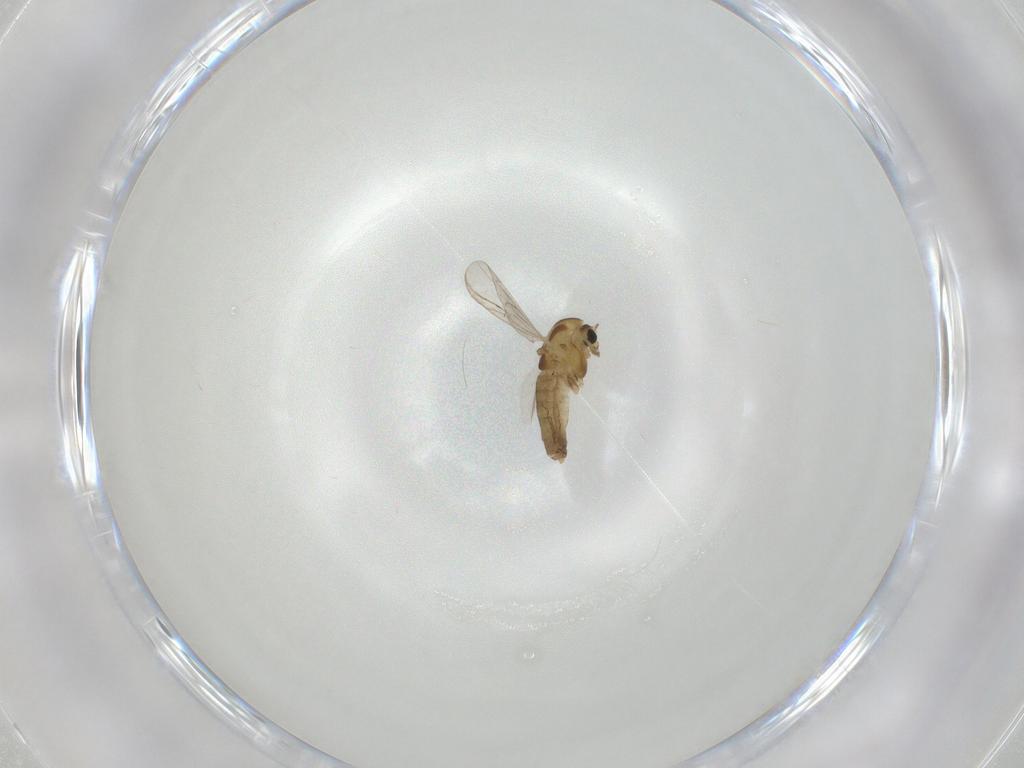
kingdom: Animalia
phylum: Arthropoda
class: Insecta
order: Diptera
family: Chironomidae
